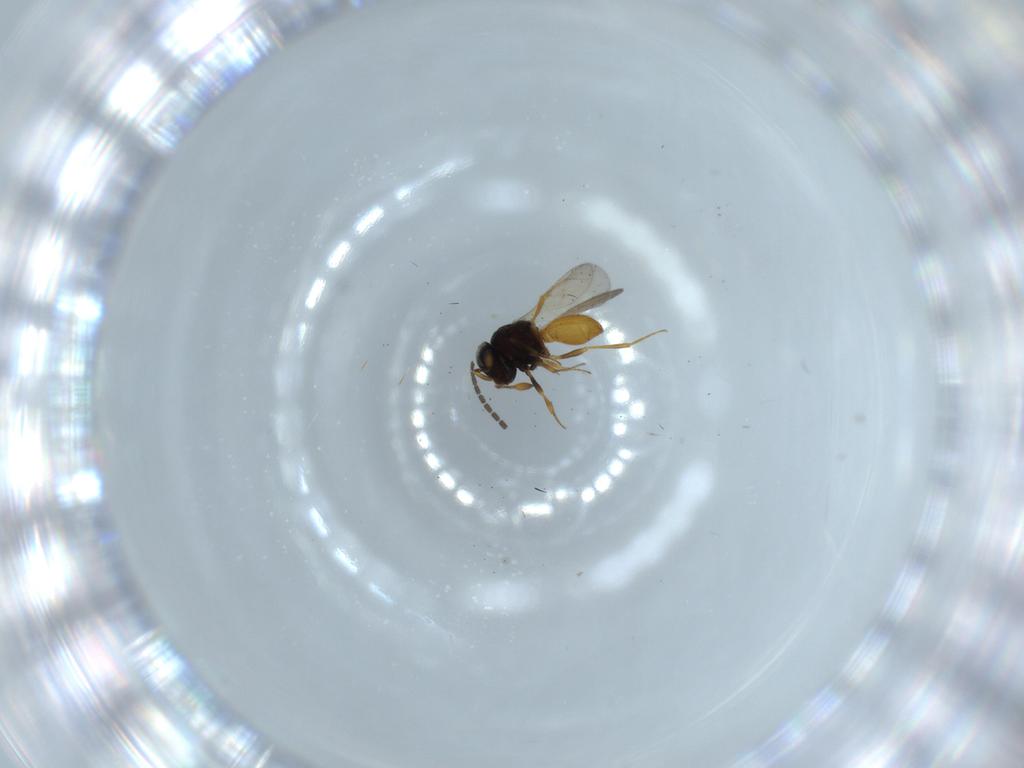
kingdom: Animalia
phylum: Arthropoda
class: Insecta
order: Hymenoptera
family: Scelionidae
